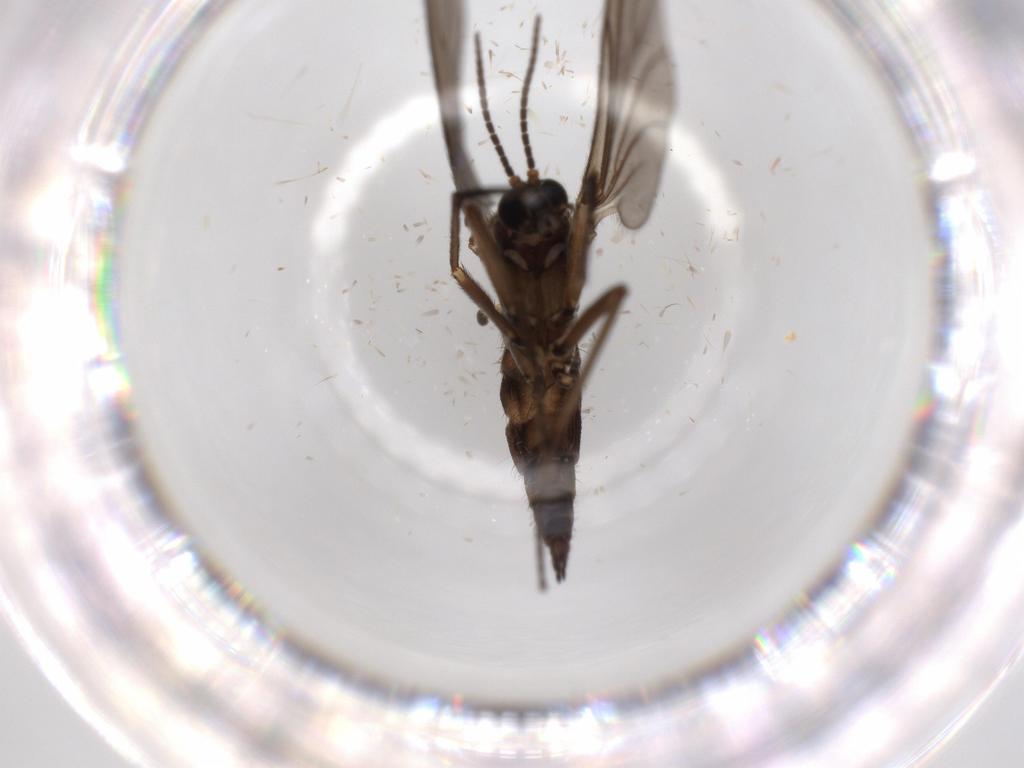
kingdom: Animalia
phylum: Arthropoda
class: Insecta
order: Diptera
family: Sciaridae
